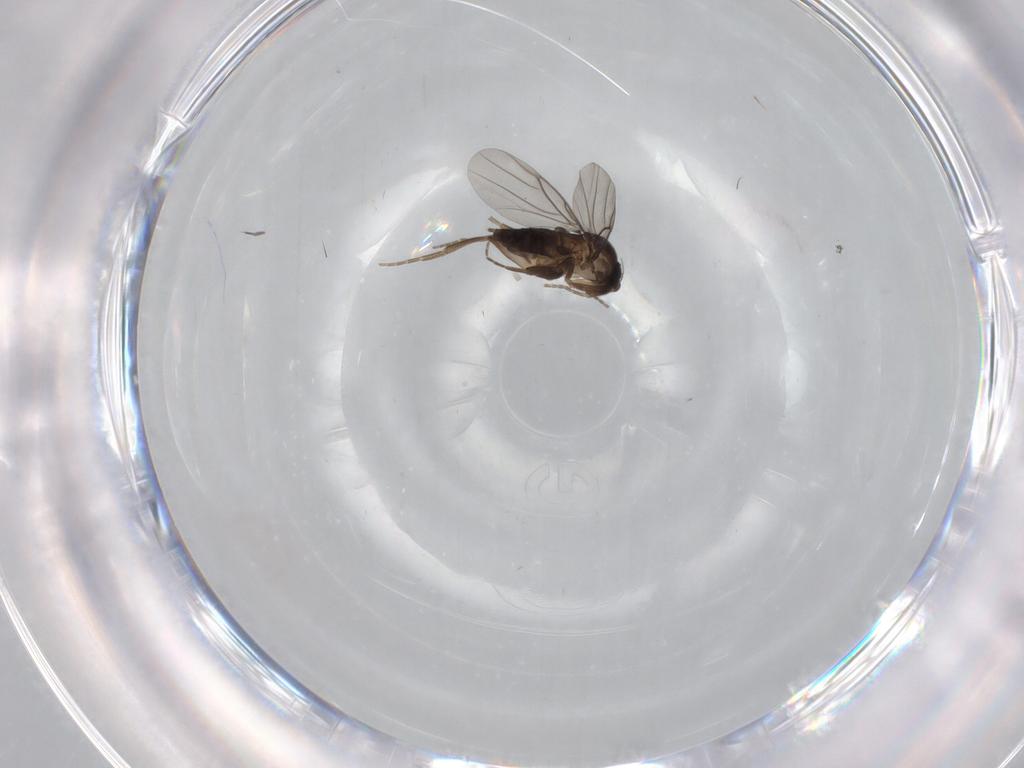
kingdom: Animalia
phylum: Arthropoda
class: Insecta
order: Diptera
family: Phoridae
